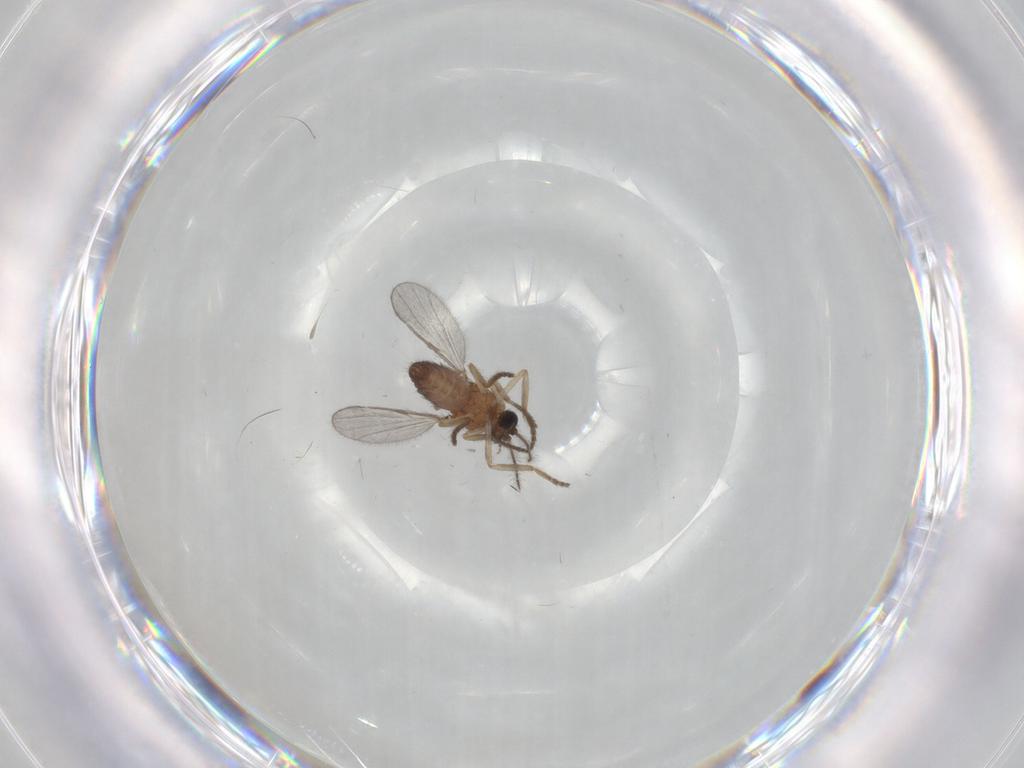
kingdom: Animalia
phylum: Arthropoda
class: Insecta
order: Diptera
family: Ceratopogonidae
